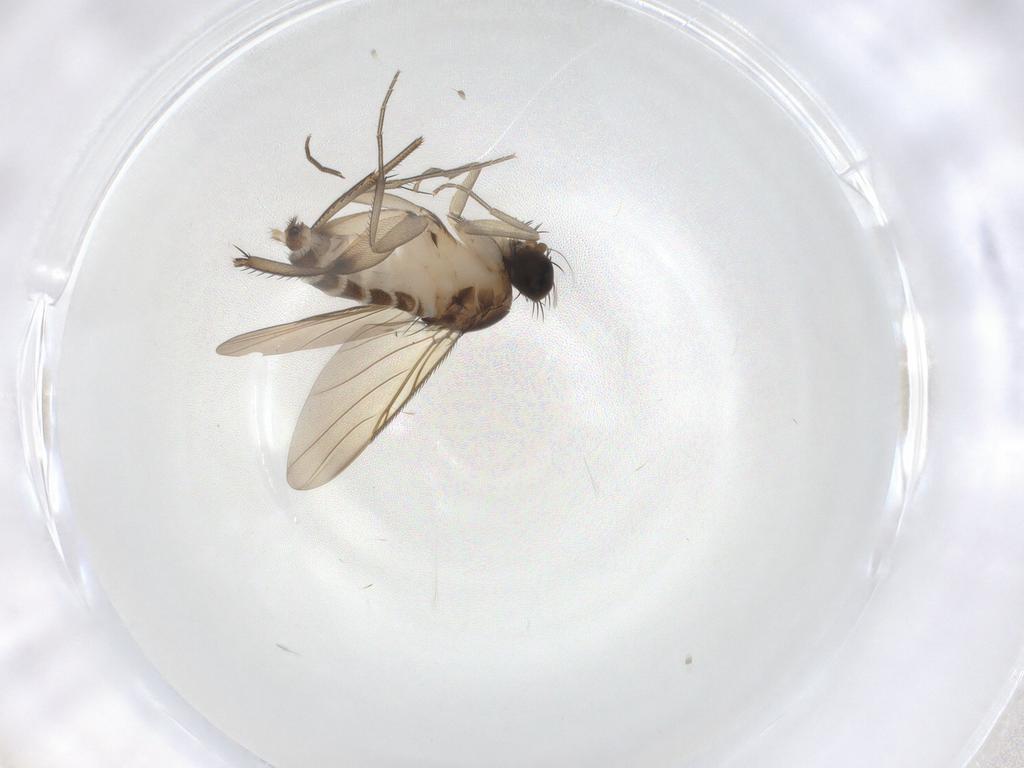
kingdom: Animalia
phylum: Arthropoda
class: Insecta
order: Diptera
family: Phoridae
